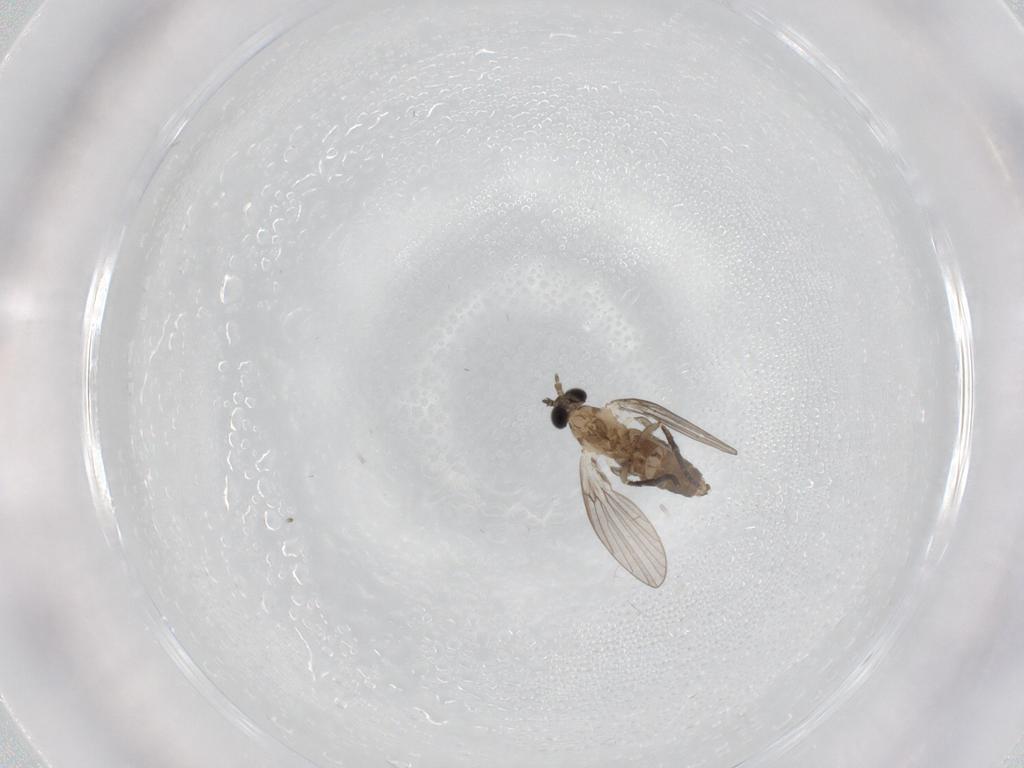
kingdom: Animalia
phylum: Arthropoda
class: Insecta
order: Diptera
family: Psychodidae
